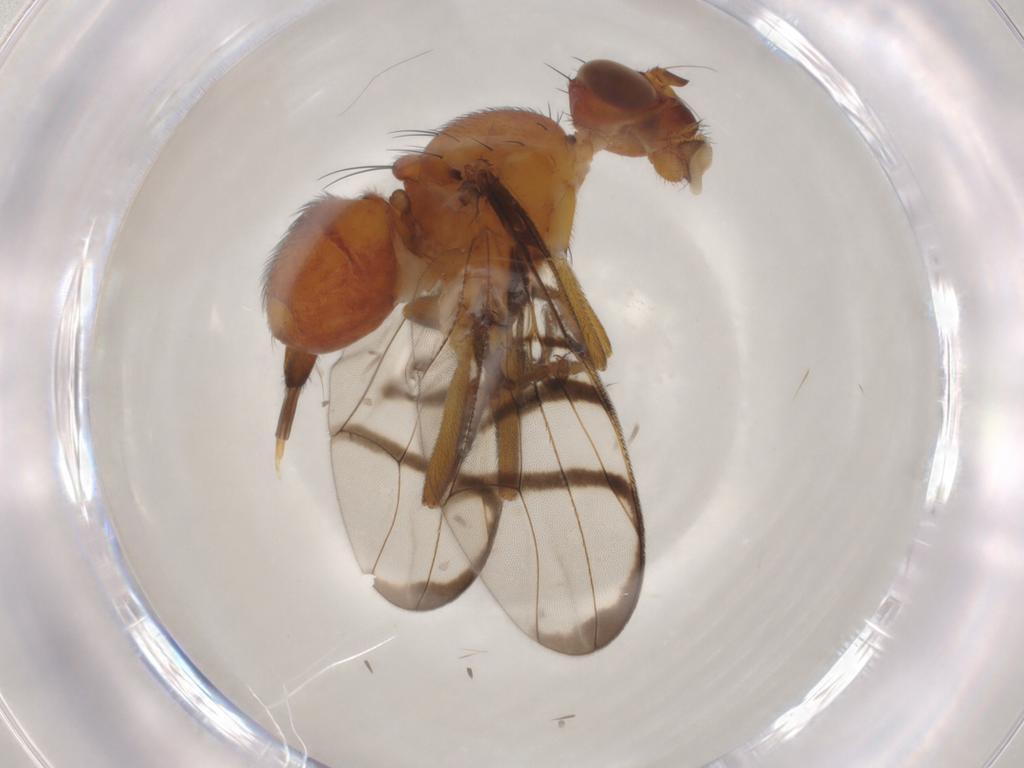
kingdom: Animalia
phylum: Arthropoda
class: Insecta
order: Diptera
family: Platystomatidae
